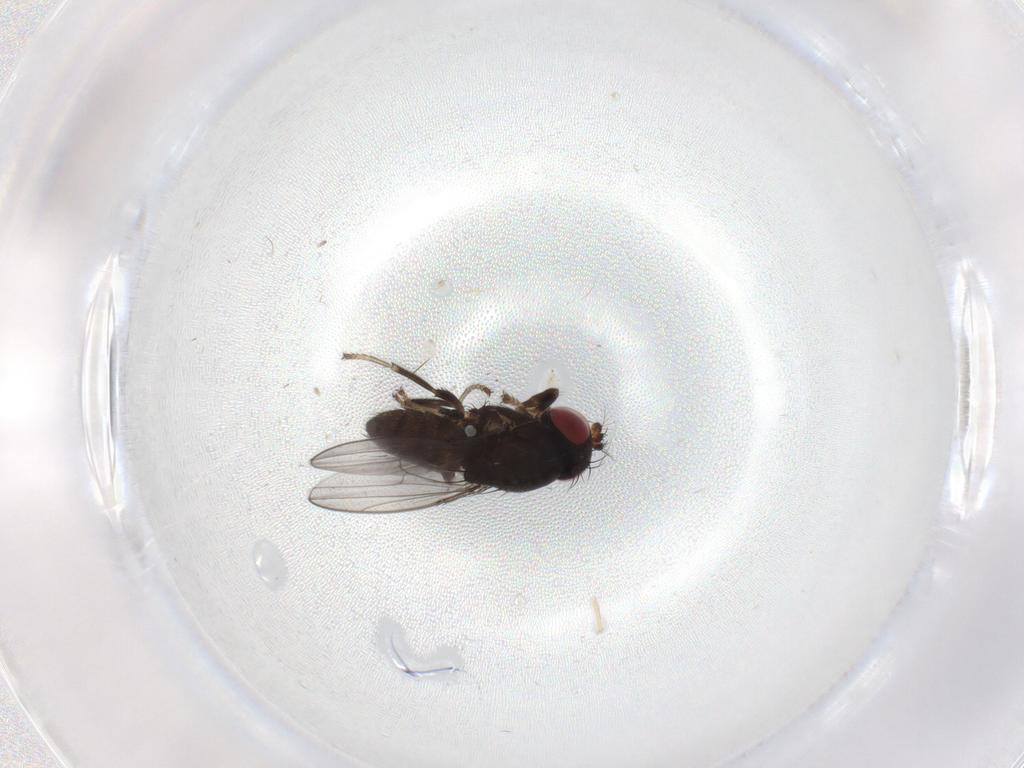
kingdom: Animalia
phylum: Arthropoda
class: Insecta
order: Diptera
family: Ephydridae
